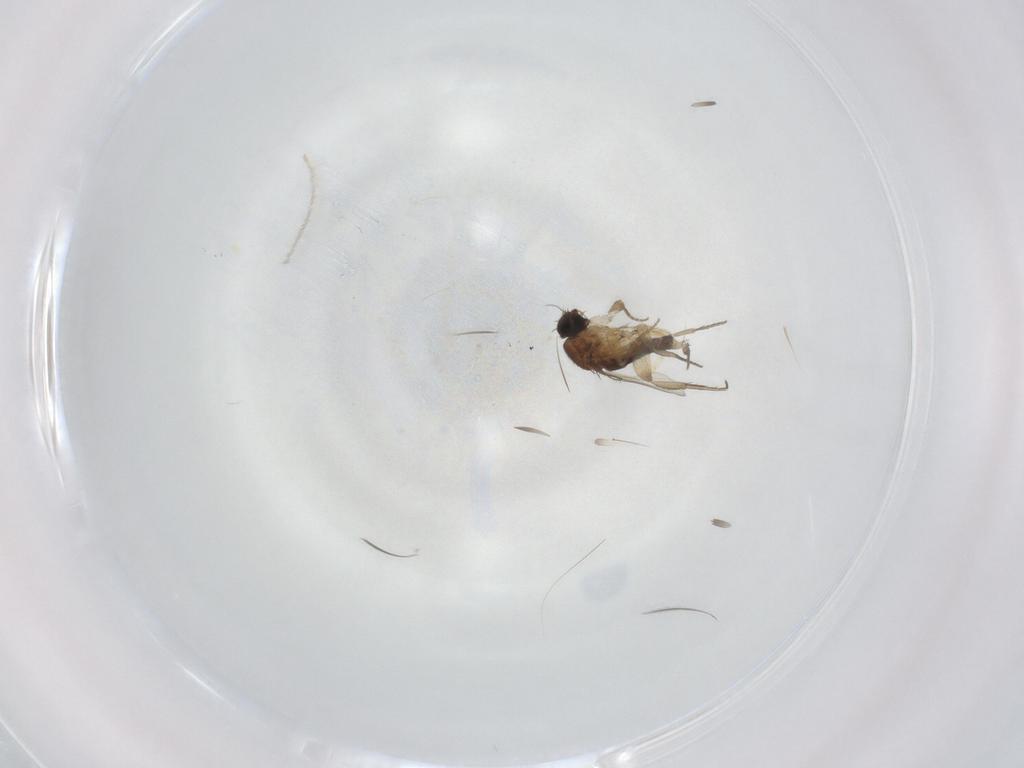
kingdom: Animalia
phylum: Arthropoda
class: Insecta
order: Diptera
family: Phoridae
